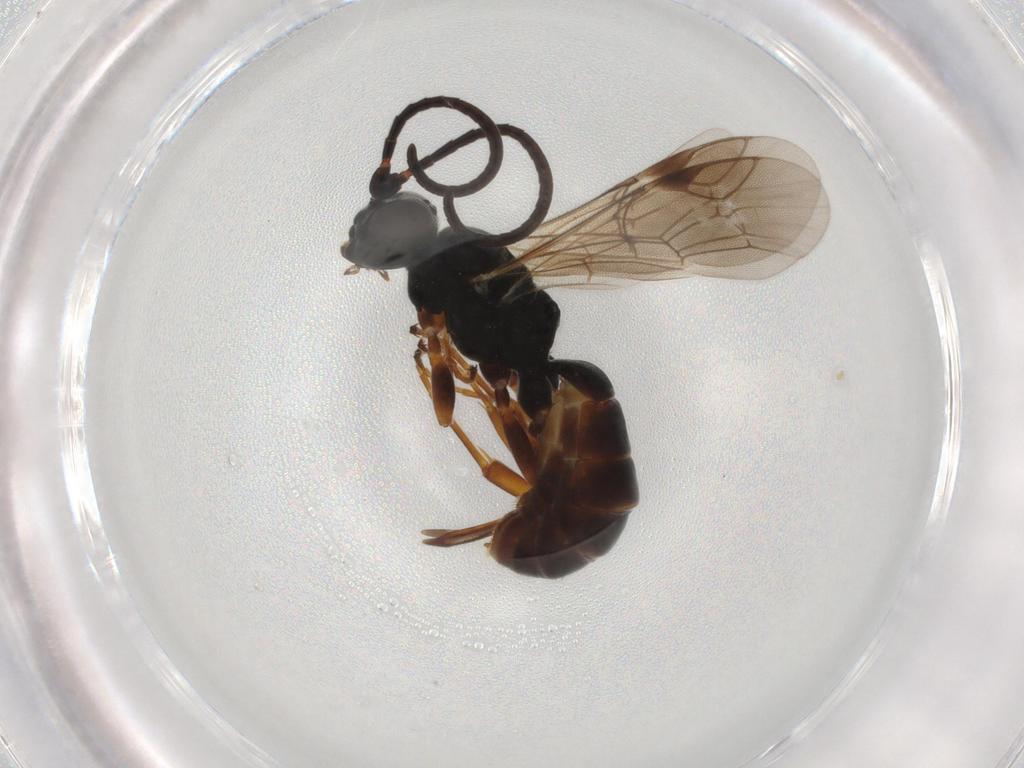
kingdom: Animalia
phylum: Arthropoda
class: Insecta
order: Hymenoptera
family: Ichneumonidae
